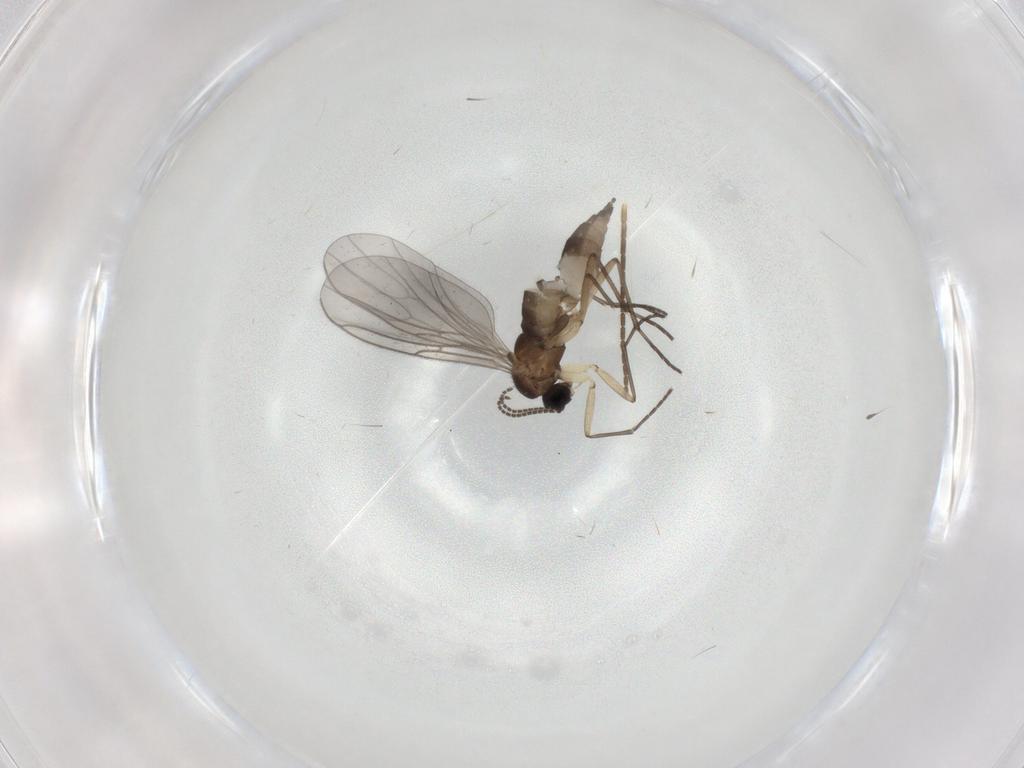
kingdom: Animalia
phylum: Arthropoda
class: Insecta
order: Diptera
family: Sciaridae
